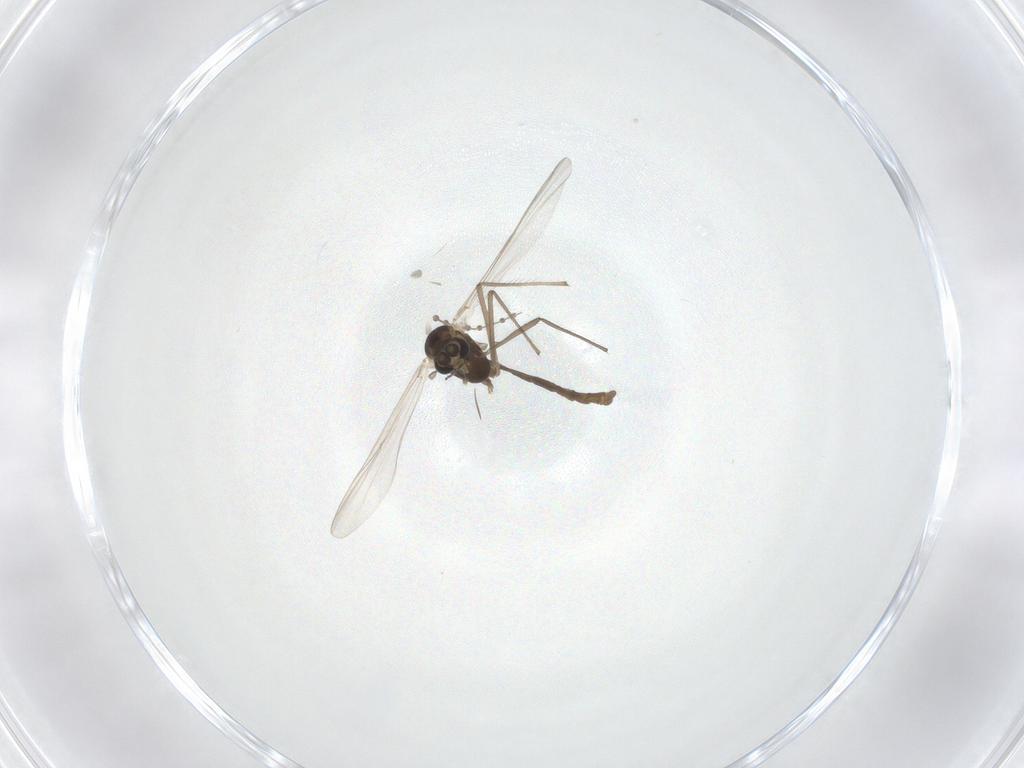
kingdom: Animalia
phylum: Arthropoda
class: Insecta
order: Diptera
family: Cecidomyiidae
